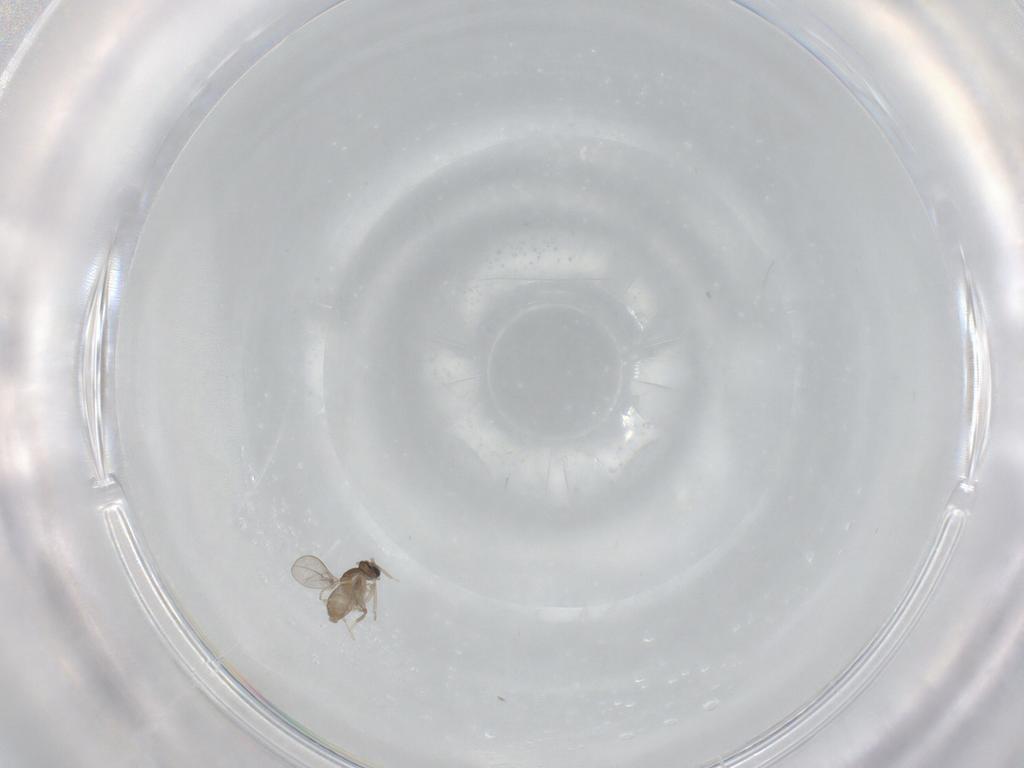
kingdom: Animalia
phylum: Arthropoda
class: Insecta
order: Diptera
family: Cecidomyiidae
